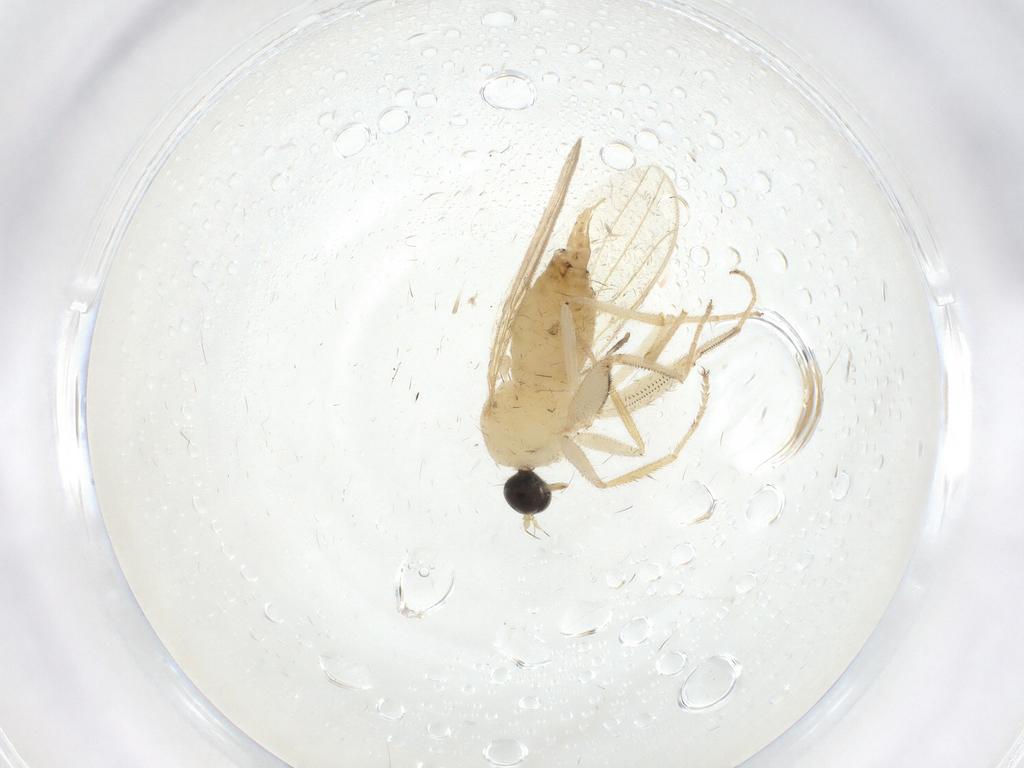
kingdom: Animalia
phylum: Arthropoda
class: Insecta
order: Diptera
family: Hybotidae
